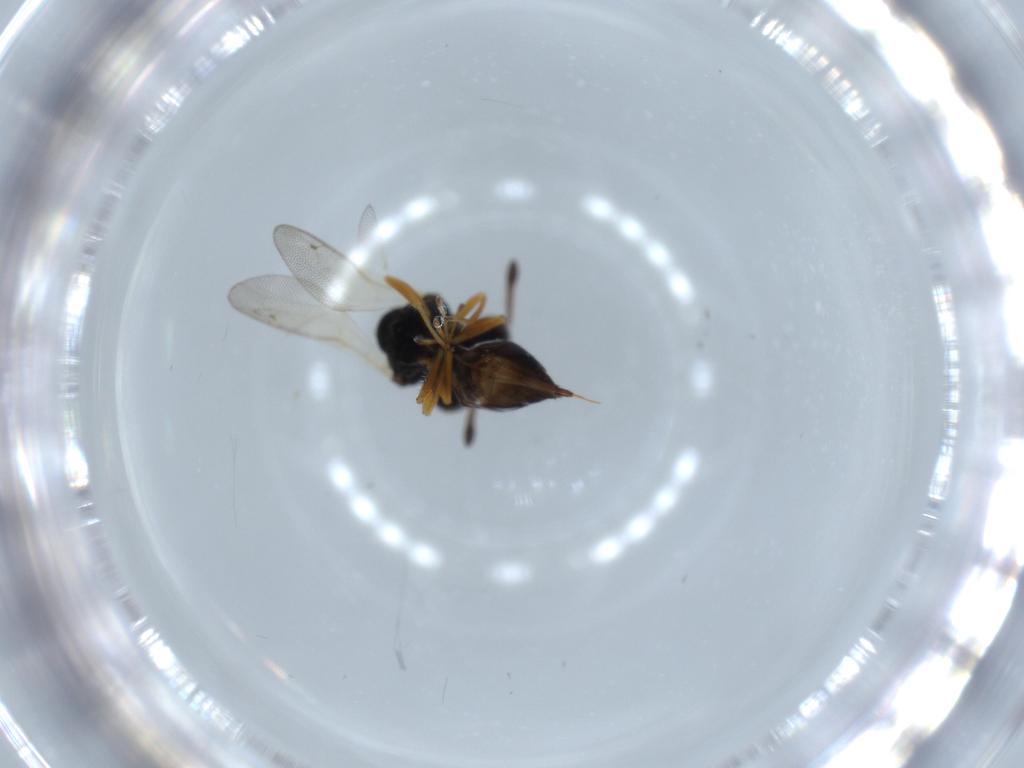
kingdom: Animalia
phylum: Arthropoda
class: Insecta
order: Hymenoptera
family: Pteromalidae
